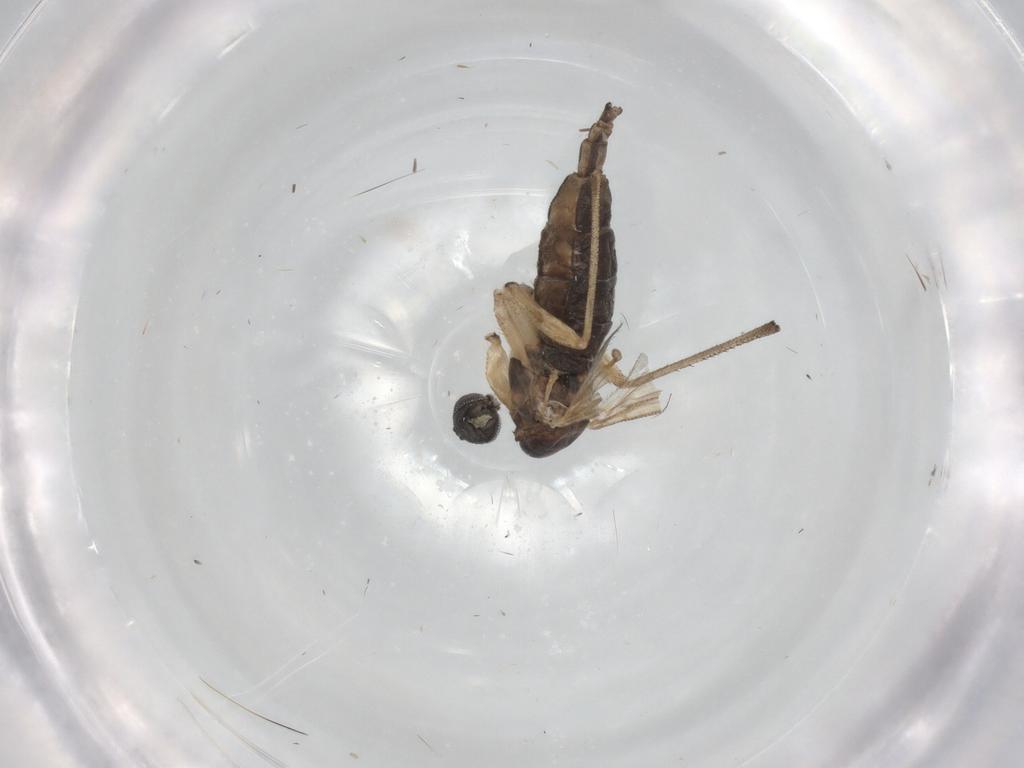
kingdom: Animalia
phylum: Arthropoda
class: Insecta
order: Diptera
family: Sciaridae
